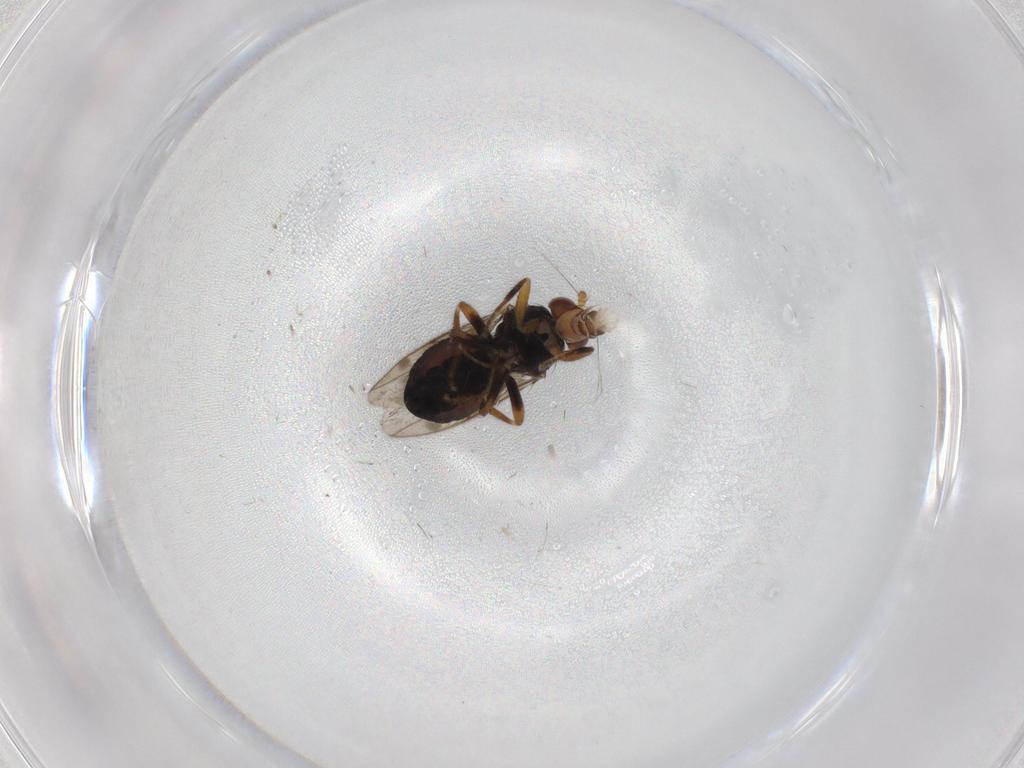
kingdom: Animalia
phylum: Arthropoda
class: Insecta
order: Diptera
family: Sphaeroceridae
